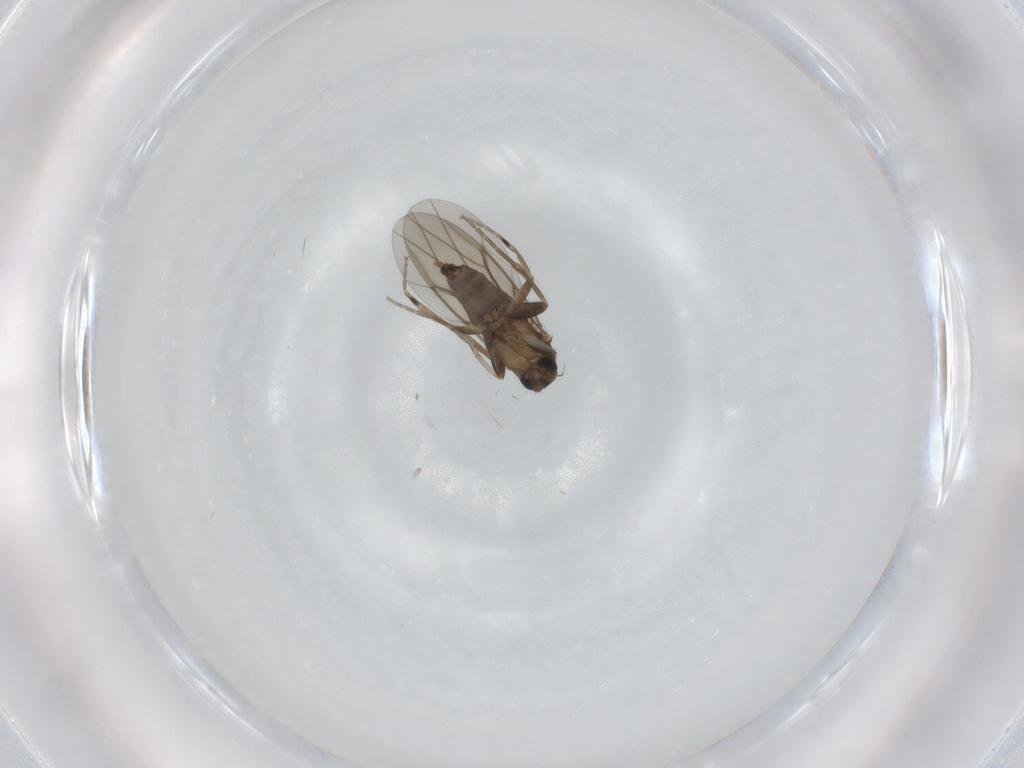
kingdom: Animalia
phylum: Arthropoda
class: Insecta
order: Diptera
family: Cecidomyiidae
